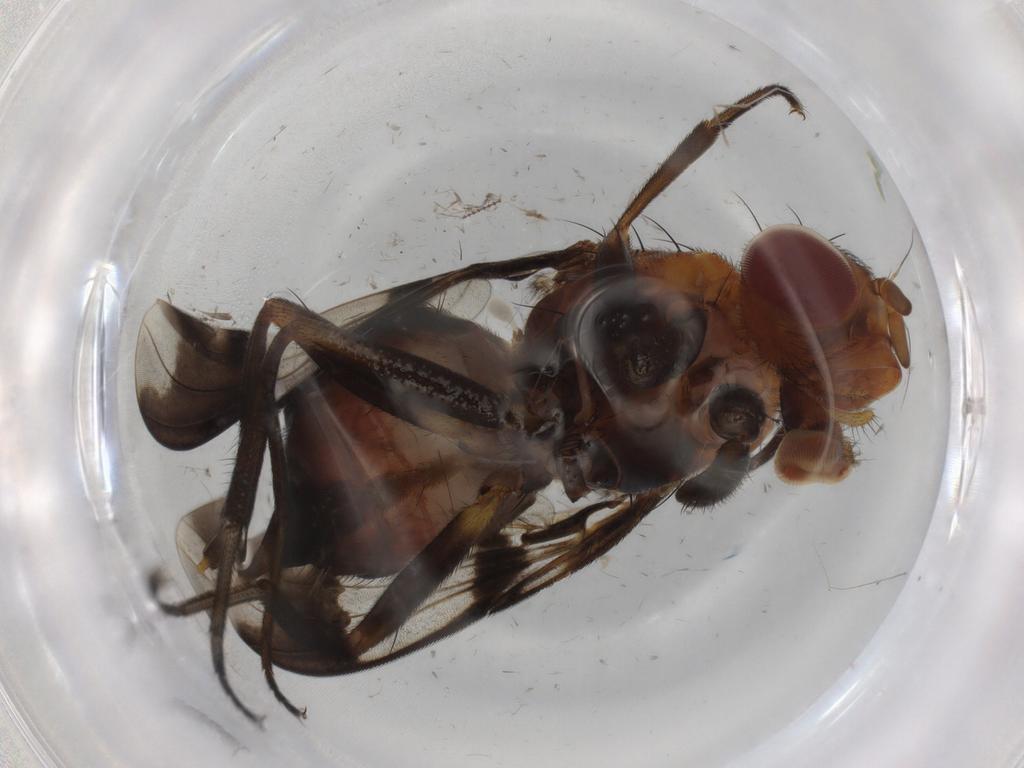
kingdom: Animalia
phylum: Arthropoda
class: Insecta
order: Diptera
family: Richardiidae
